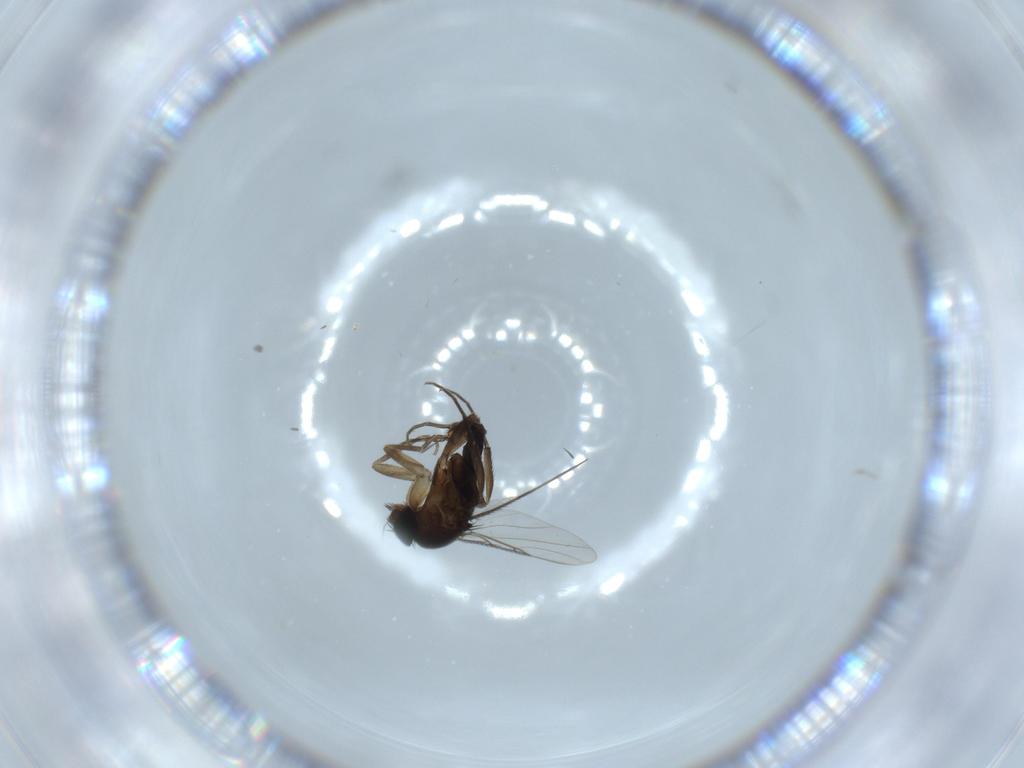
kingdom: Animalia
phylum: Arthropoda
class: Insecta
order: Diptera
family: Phoridae
